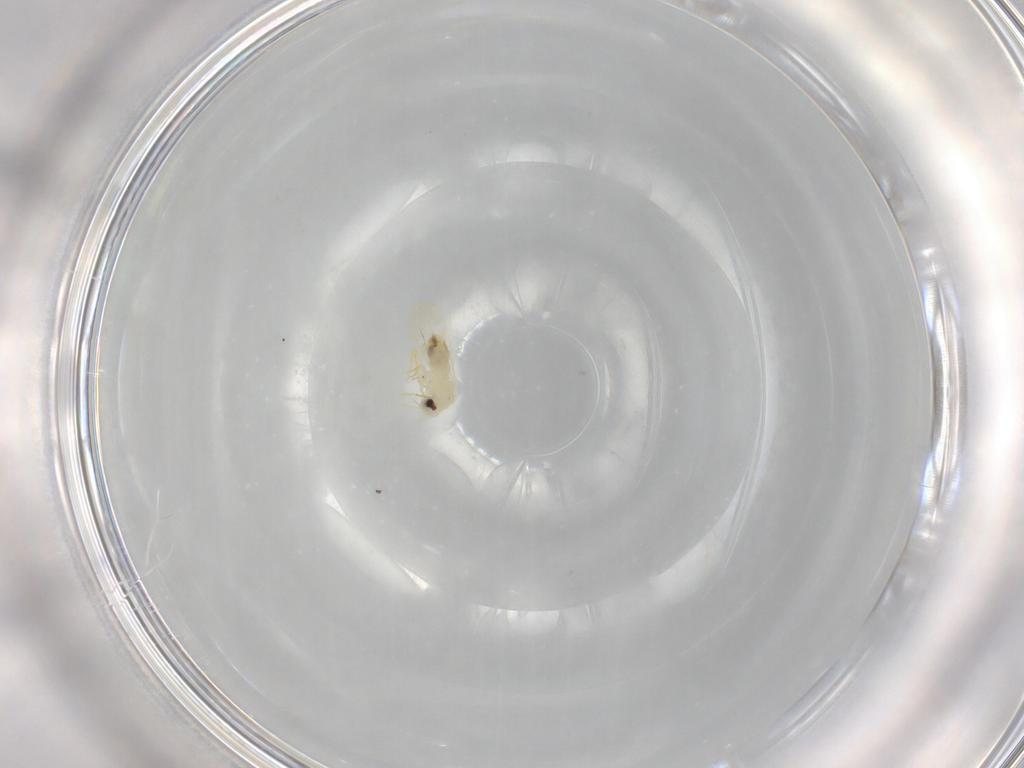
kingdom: Animalia
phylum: Arthropoda
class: Insecta
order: Hemiptera
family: Aleyrodidae
